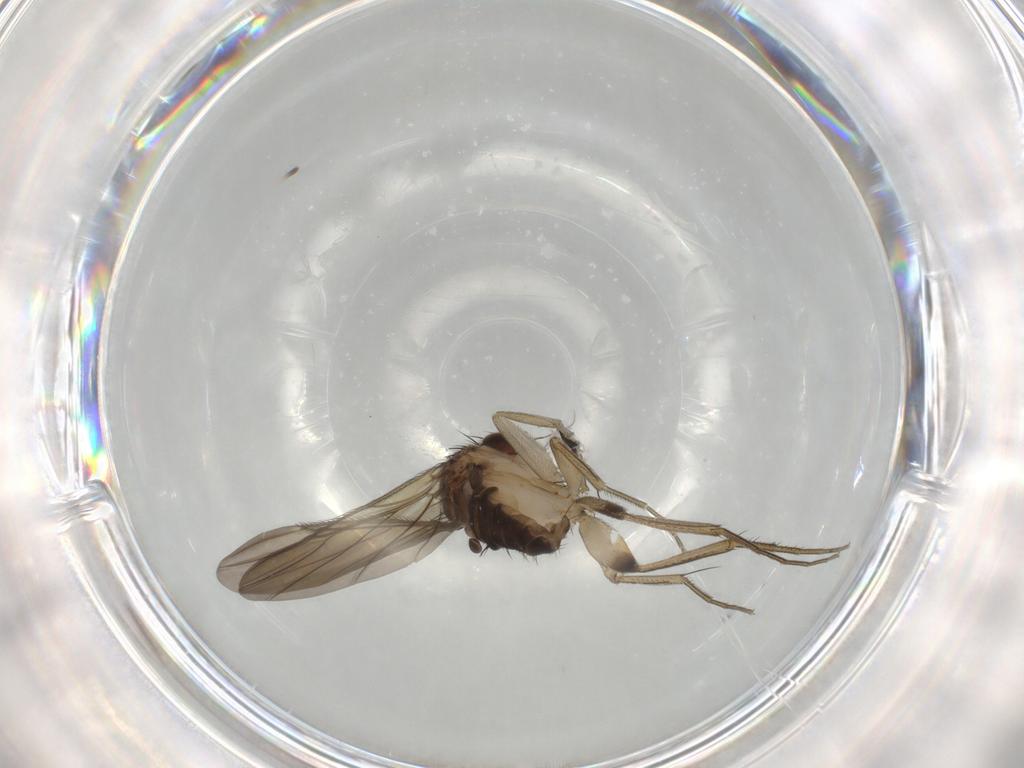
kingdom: Animalia
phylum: Arthropoda
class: Insecta
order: Diptera
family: Phoridae
